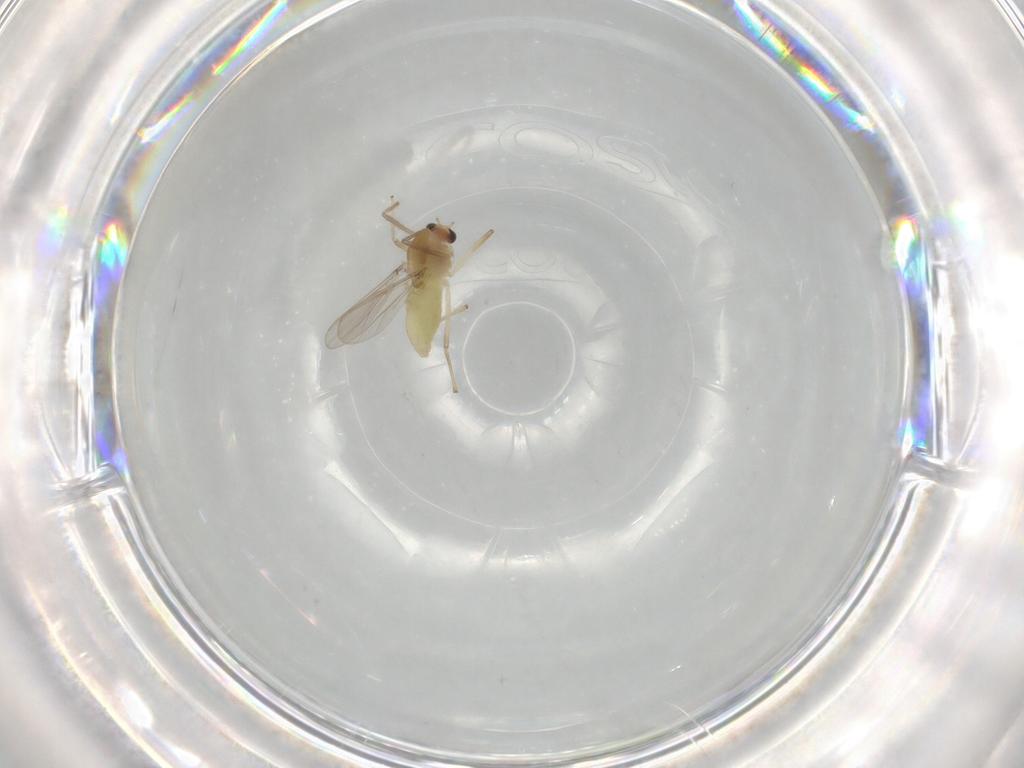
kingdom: Animalia
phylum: Arthropoda
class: Insecta
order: Diptera
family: Chironomidae
